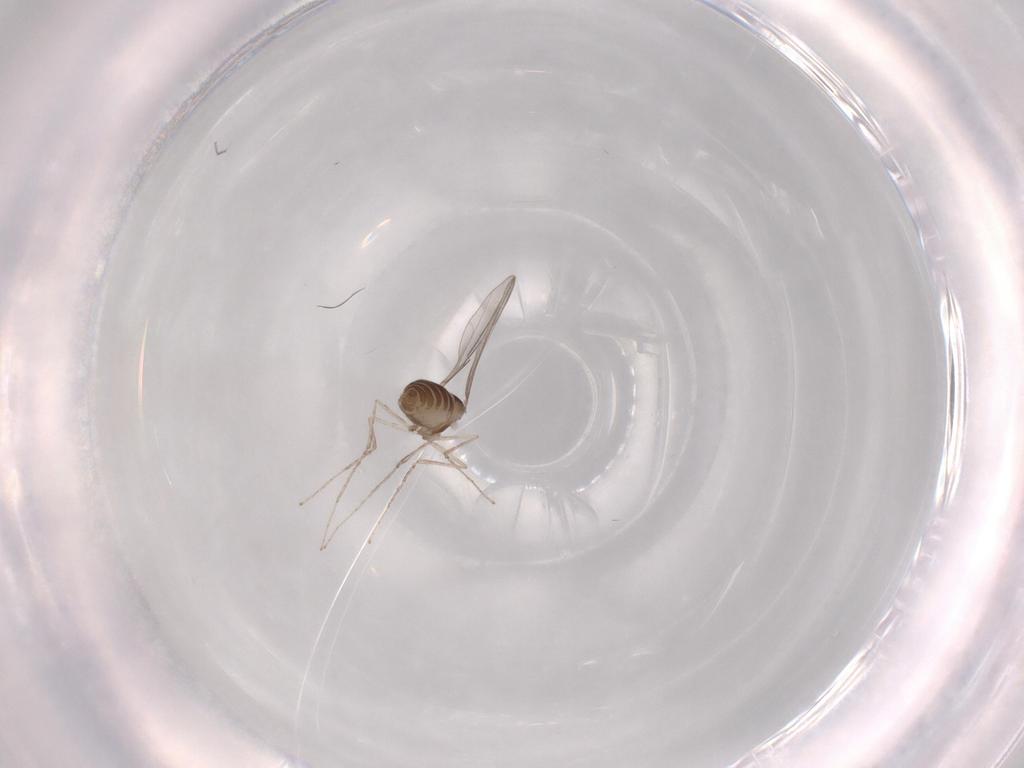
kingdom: Animalia
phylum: Arthropoda
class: Insecta
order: Diptera
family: Cecidomyiidae
